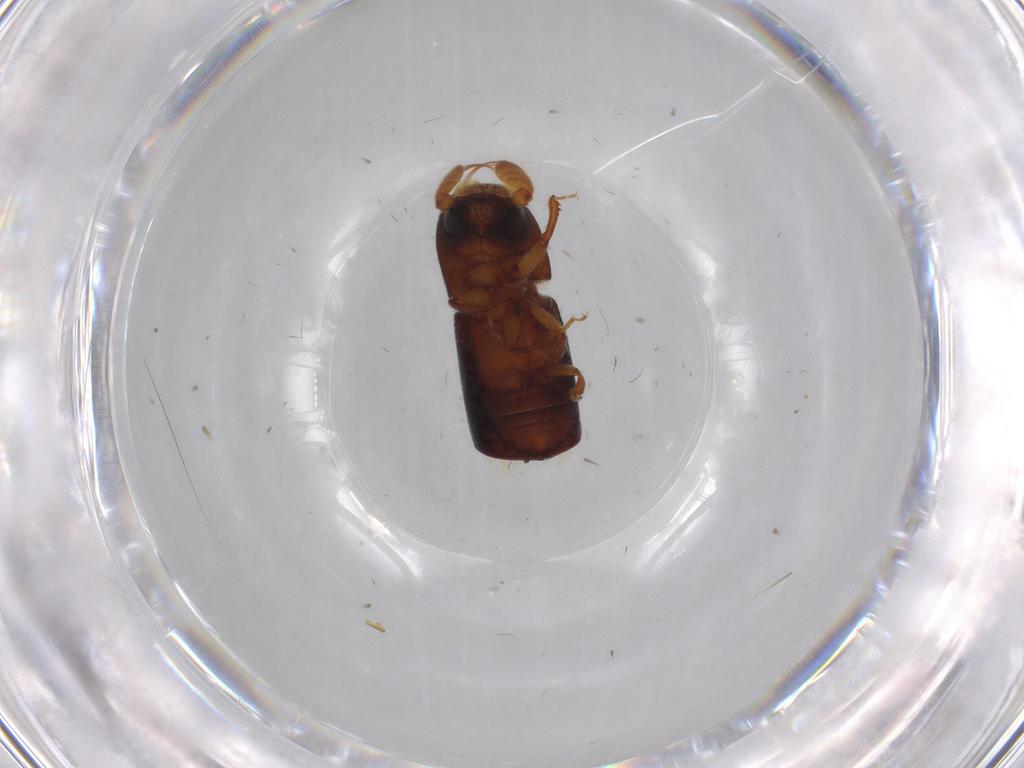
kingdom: Animalia
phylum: Arthropoda
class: Insecta
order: Coleoptera
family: Curculionidae
